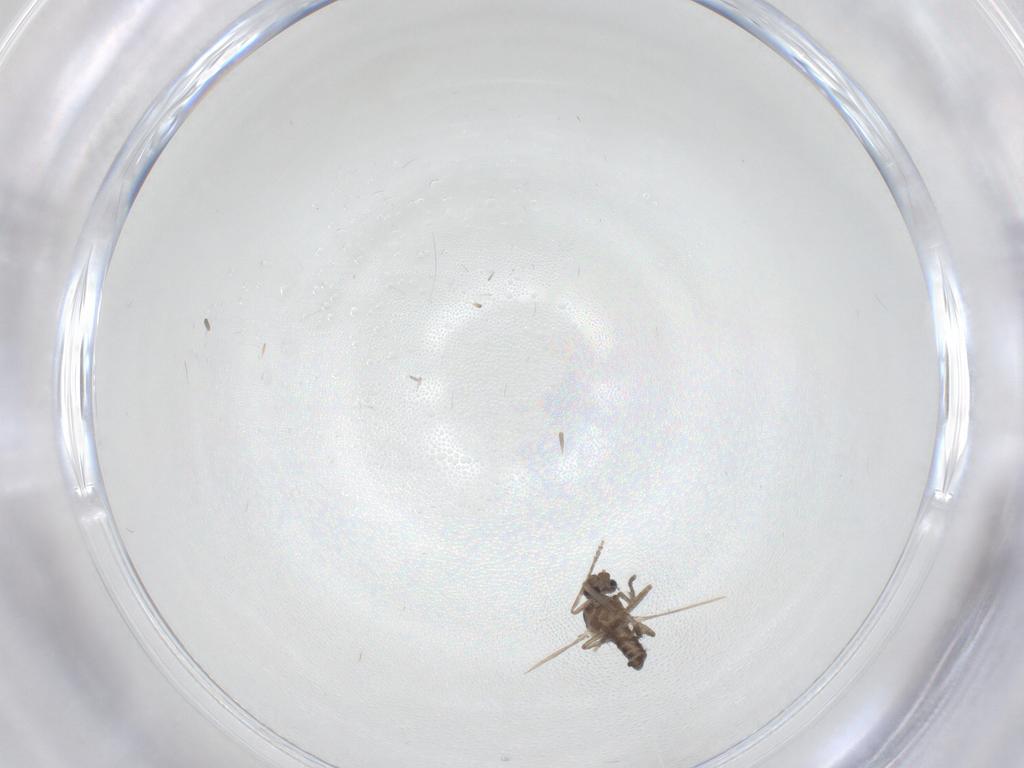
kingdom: Animalia
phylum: Arthropoda
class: Insecta
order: Diptera
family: Ceratopogonidae
